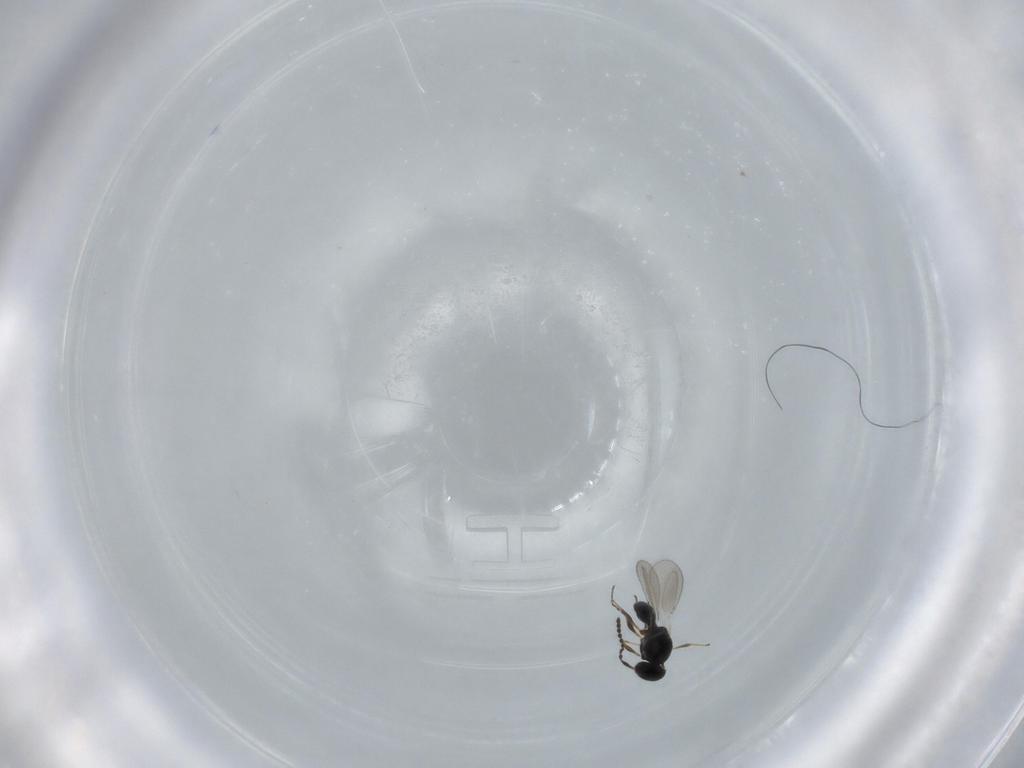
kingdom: Animalia
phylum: Arthropoda
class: Insecta
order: Hymenoptera
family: Platygastridae
